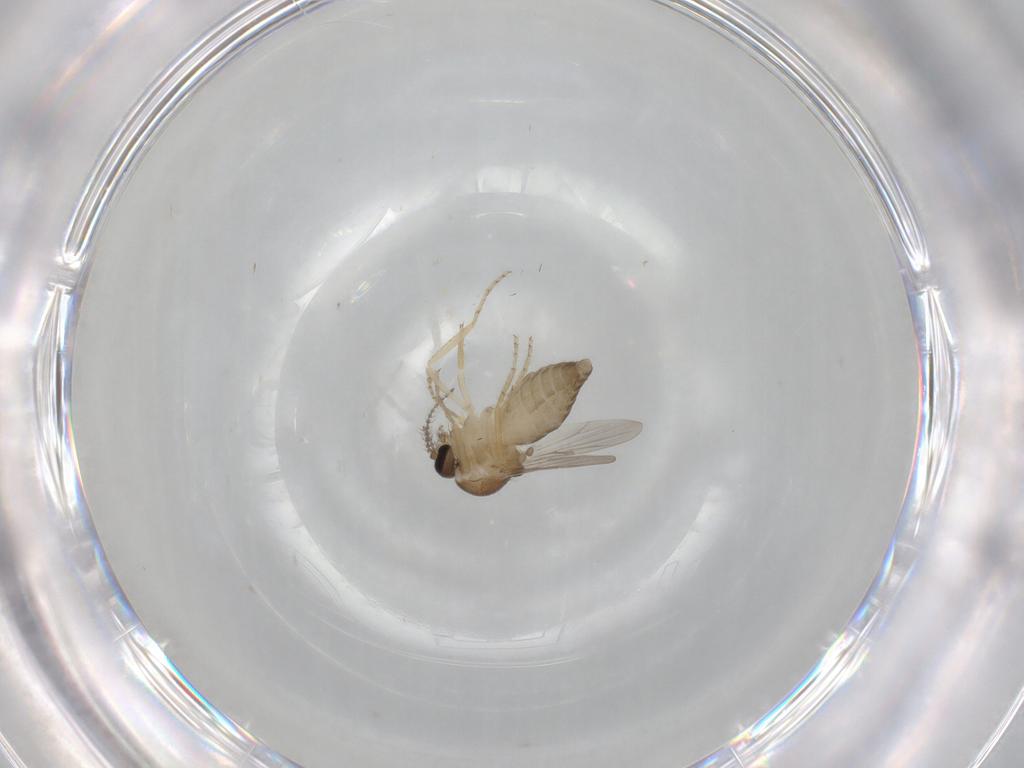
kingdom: Animalia
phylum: Arthropoda
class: Insecta
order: Diptera
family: Ceratopogonidae
